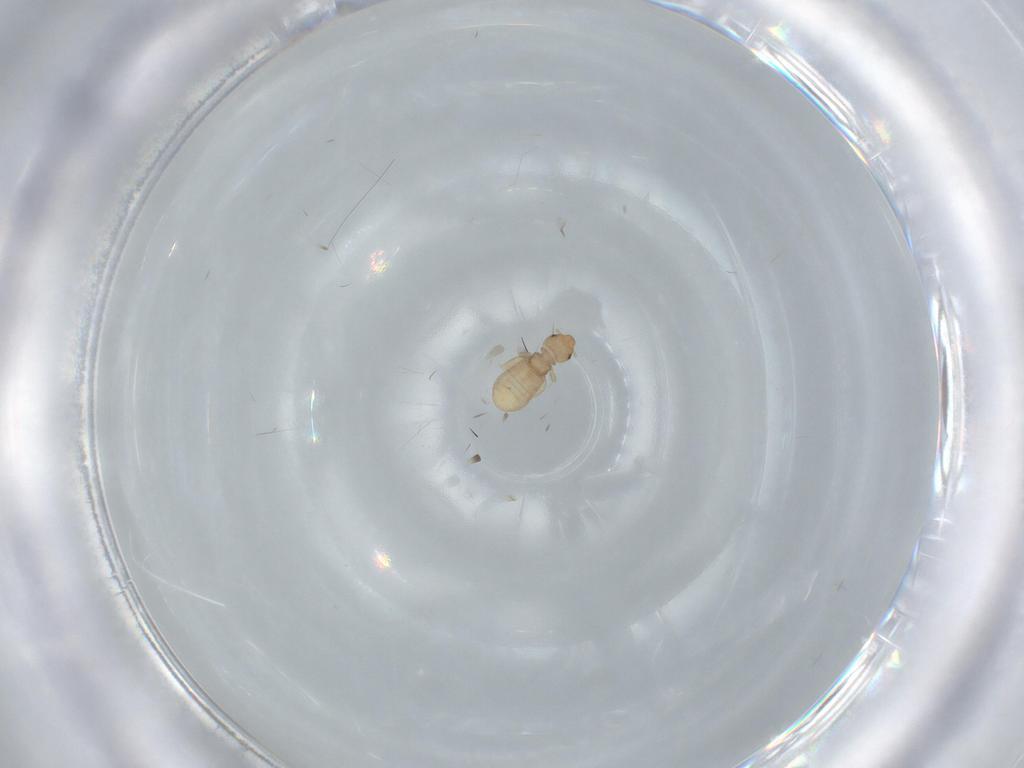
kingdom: Animalia
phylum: Arthropoda
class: Insecta
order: Psocodea
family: Liposcelididae
